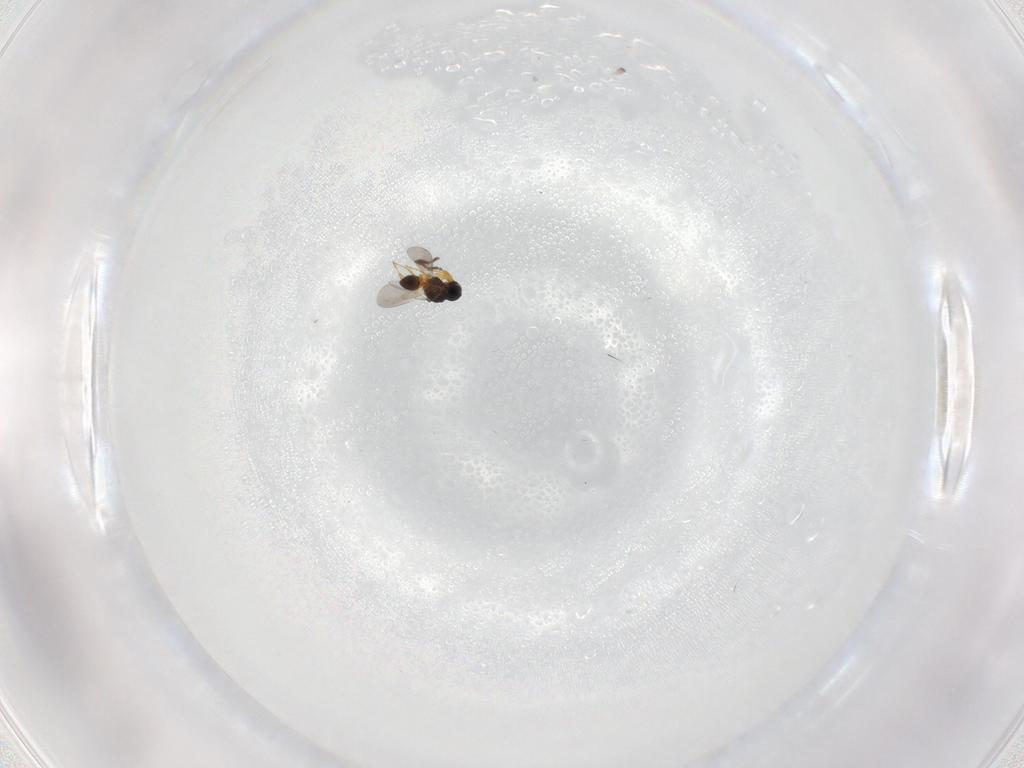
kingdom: Animalia
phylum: Arthropoda
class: Insecta
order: Hymenoptera
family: Platygastridae
